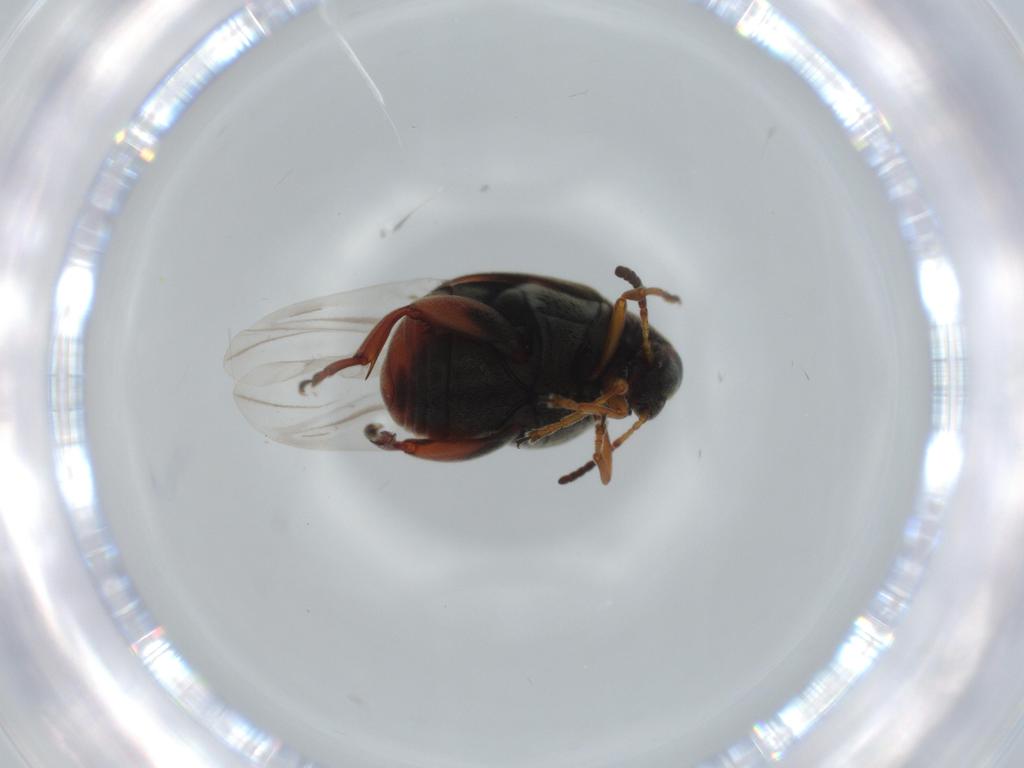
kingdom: Animalia
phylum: Arthropoda
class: Insecta
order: Coleoptera
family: Chrysomelidae
